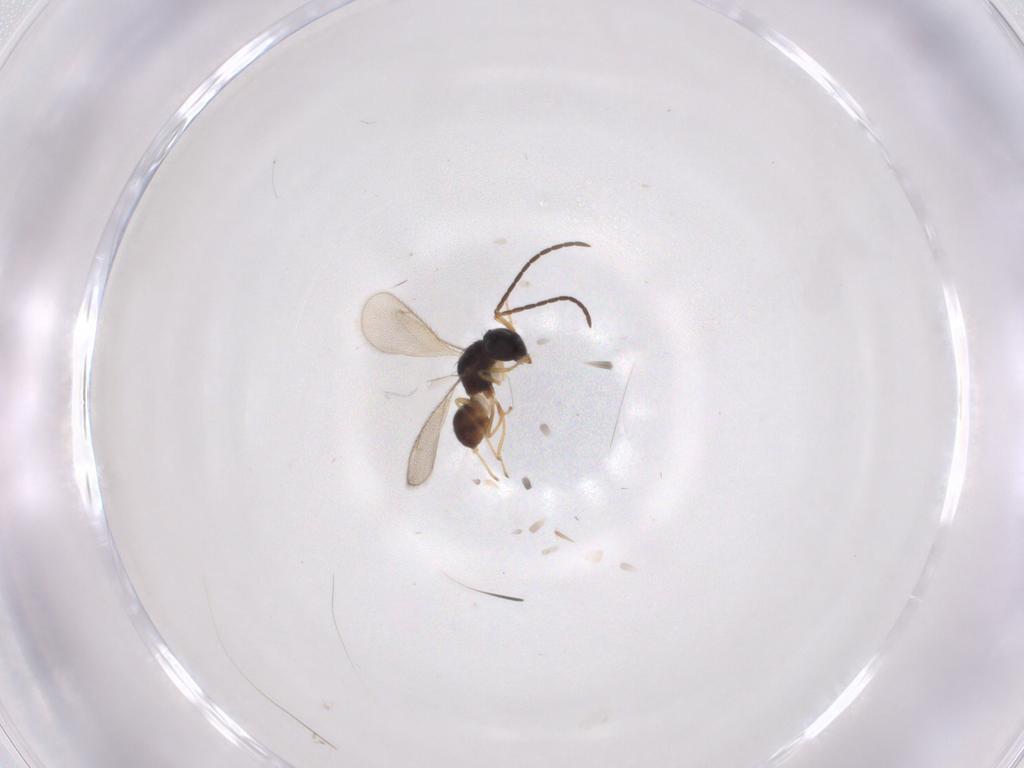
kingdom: Animalia
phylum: Arthropoda
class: Insecta
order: Hymenoptera
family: Diparidae
